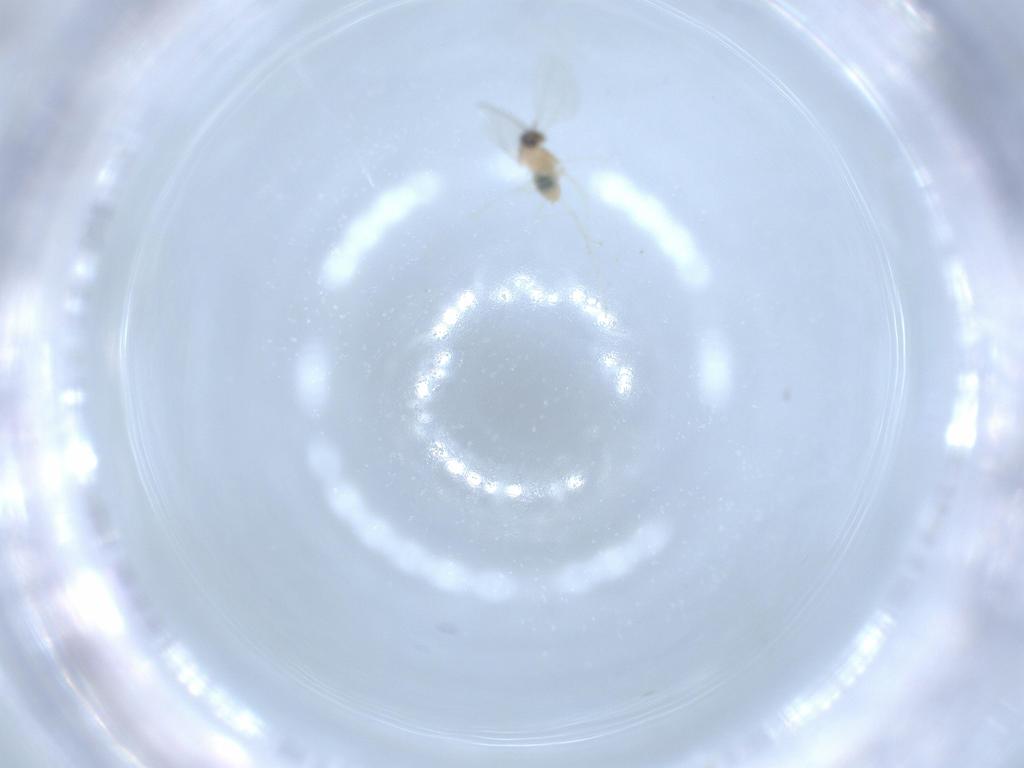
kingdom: Animalia
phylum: Arthropoda
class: Insecta
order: Diptera
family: Cecidomyiidae
